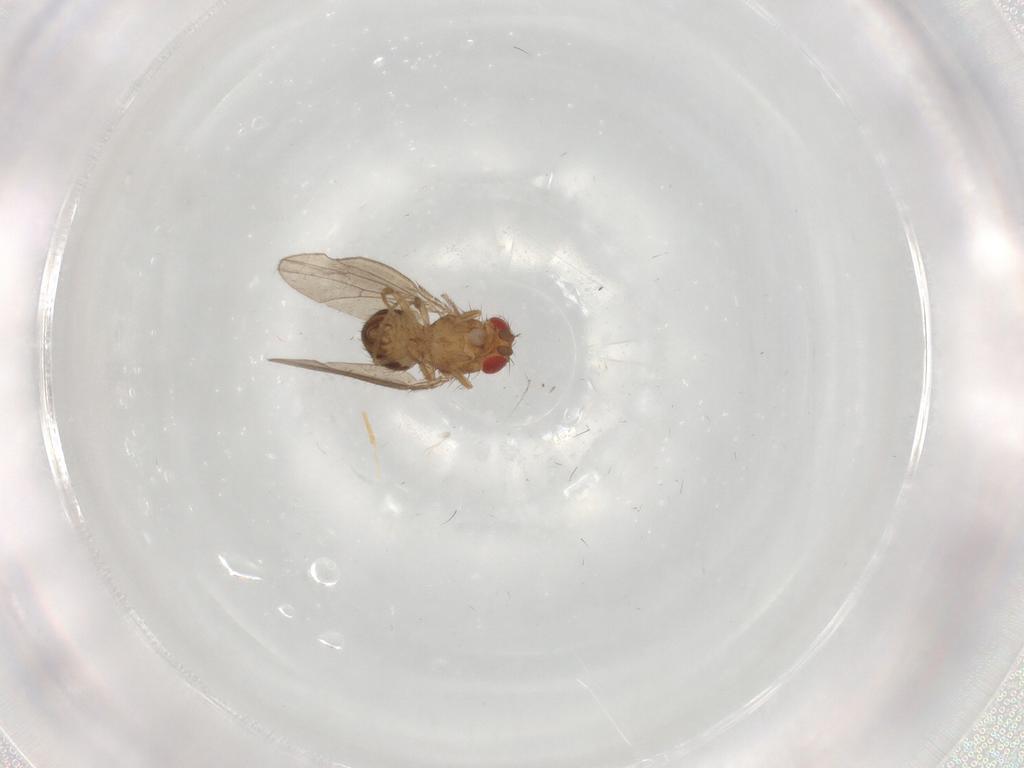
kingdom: Animalia
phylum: Arthropoda
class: Insecta
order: Diptera
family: Drosophilidae
